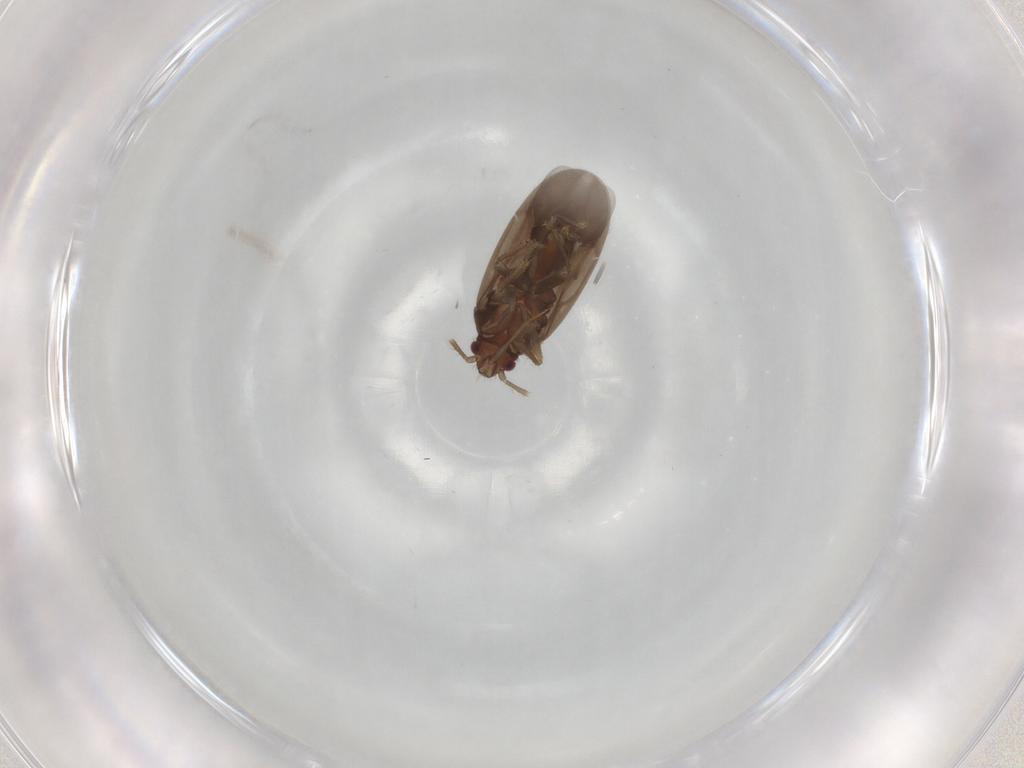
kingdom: Animalia
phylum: Arthropoda
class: Insecta
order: Hemiptera
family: Ceratocombidae
